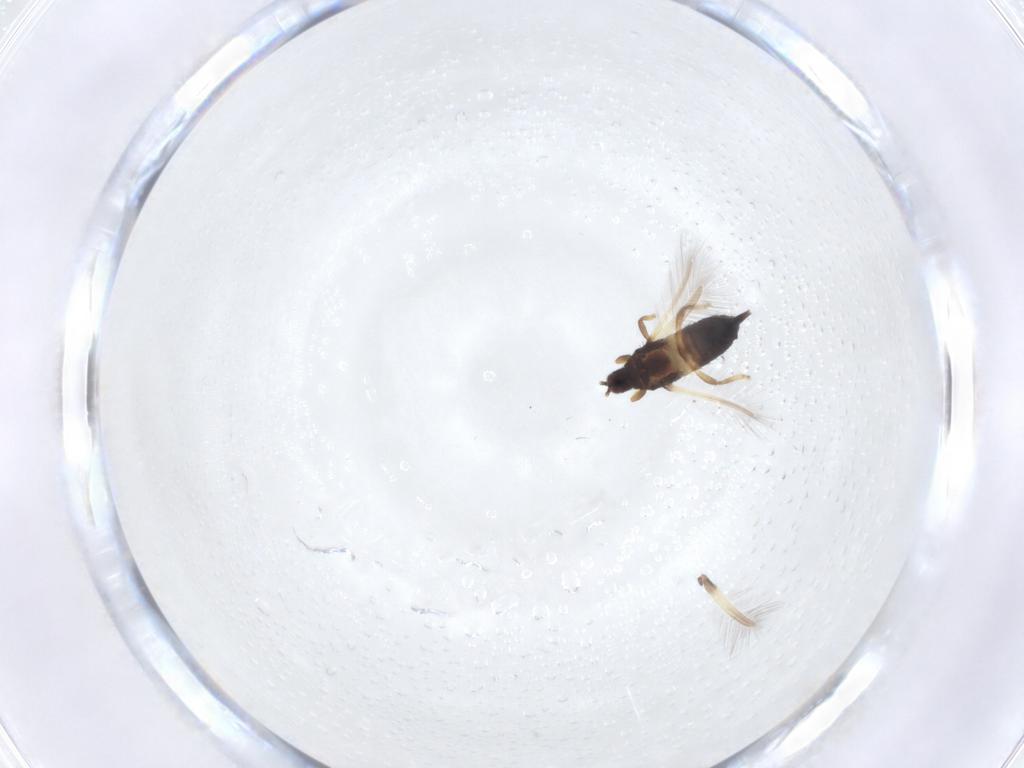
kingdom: Animalia
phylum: Arthropoda
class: Insecta
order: Thysanoptera
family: Phlaeothripidae
